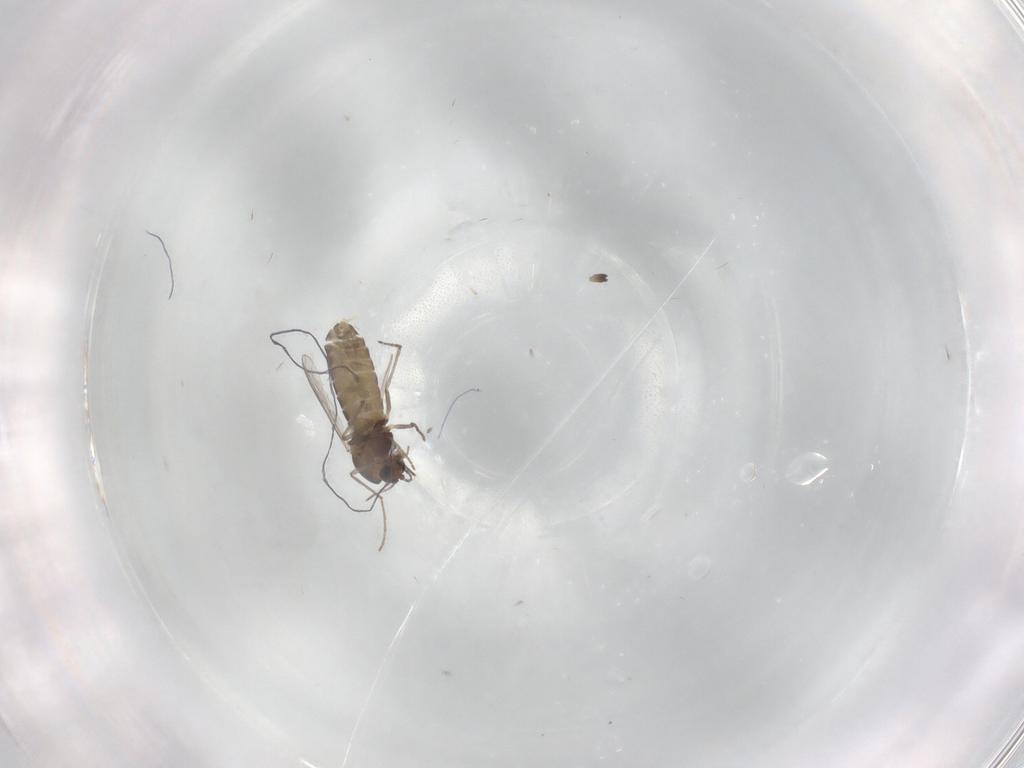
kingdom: Animalia
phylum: Arthropoda
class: Insecta
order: Diptera
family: Chironomidae
